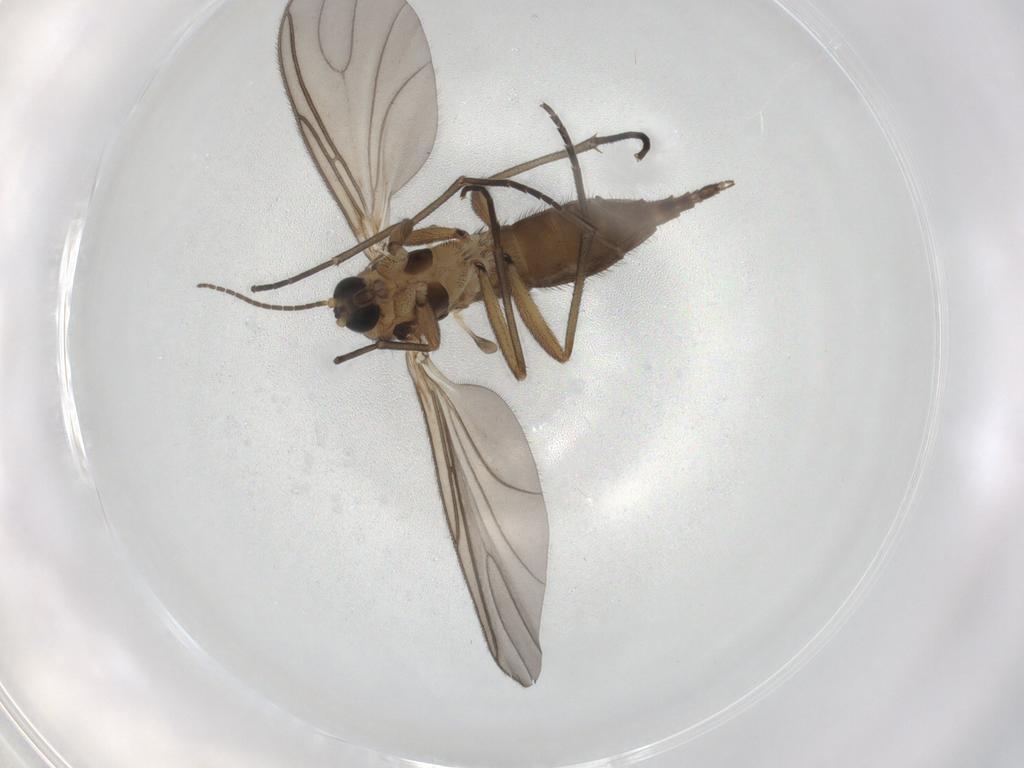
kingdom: Animalia
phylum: Arthropoda
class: Insecta
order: Diptera
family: Sciaridae
